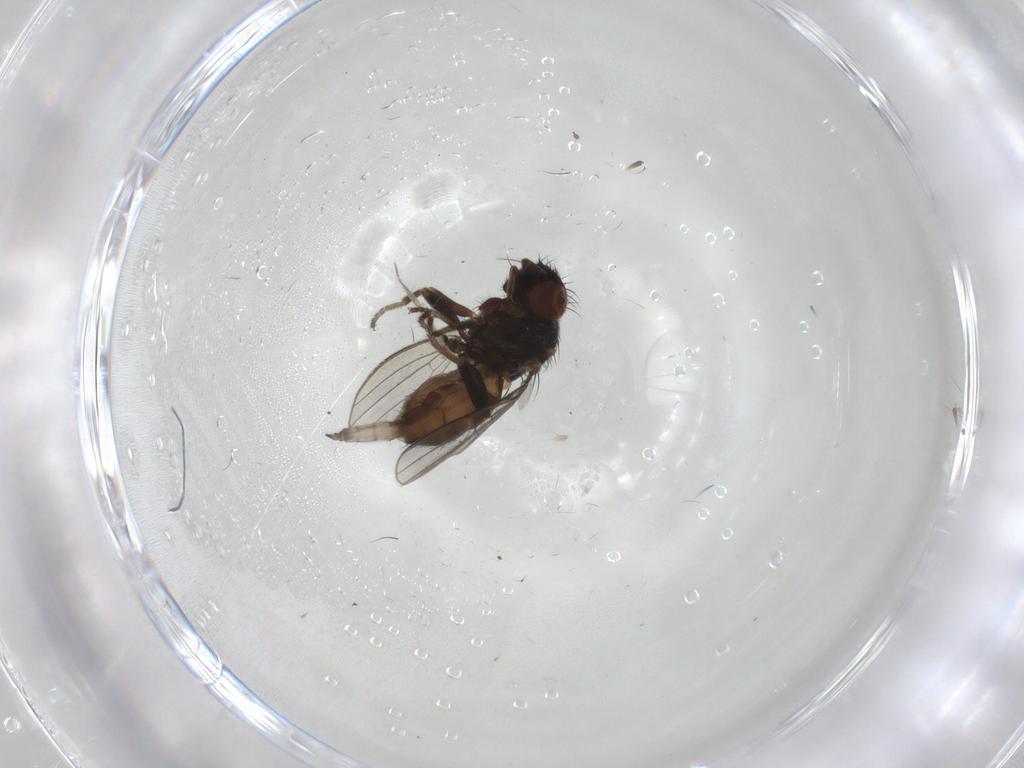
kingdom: Animalia
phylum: Arthropoda
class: Insecta
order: Diptera
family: Milichiidae
